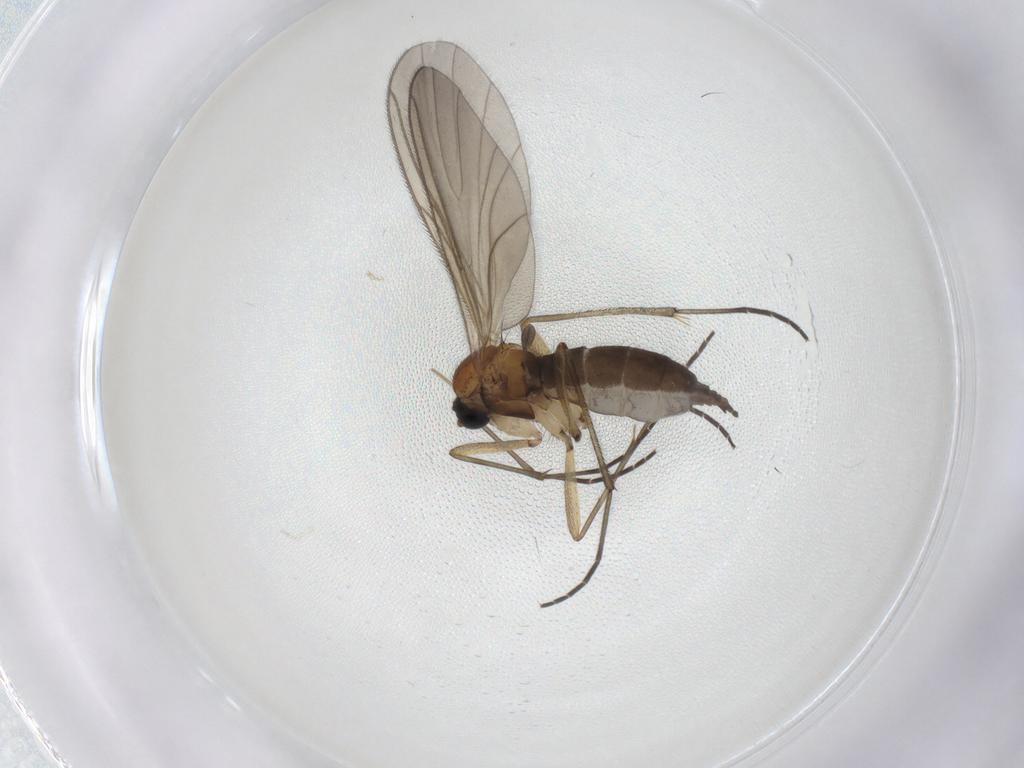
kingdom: Animalia
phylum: Arthropoda
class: Insecta
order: Diptera
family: Sciaridae
